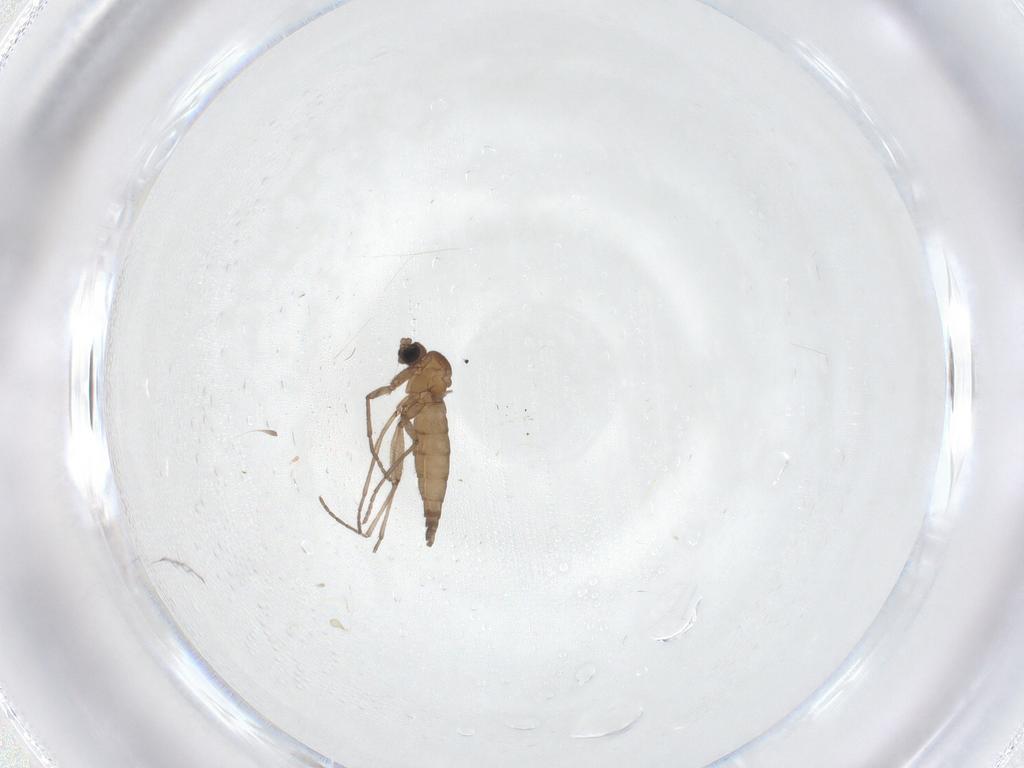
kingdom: Animalia
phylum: Arthropoda
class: Insecta
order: Diptera
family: Sciaridae
